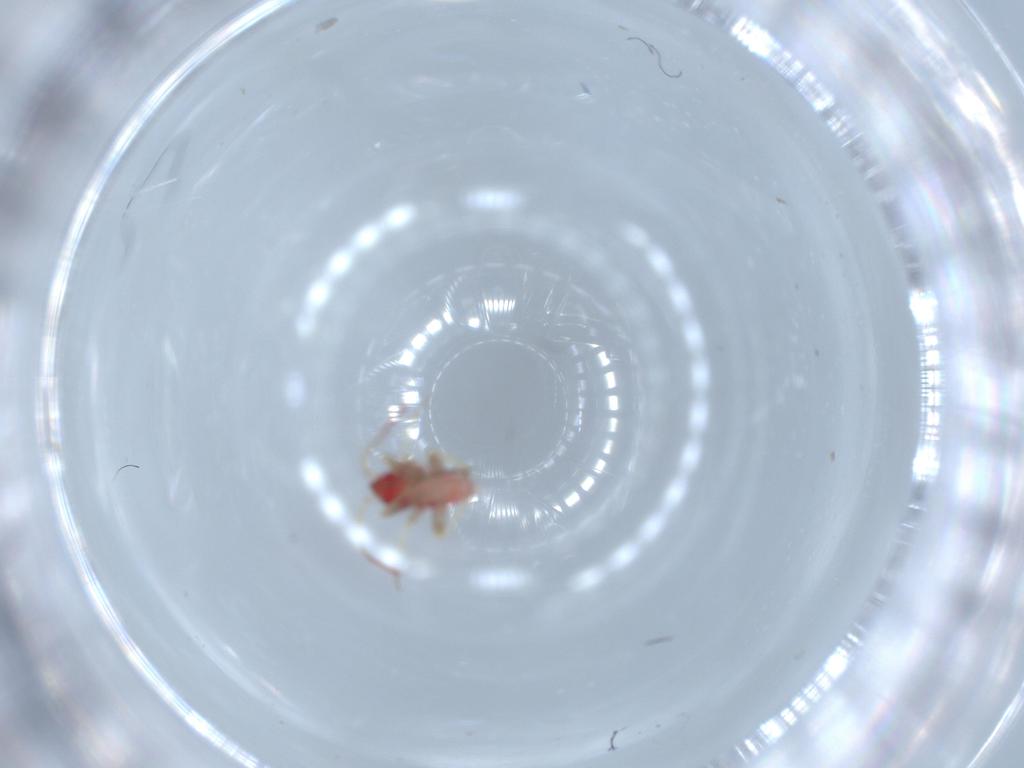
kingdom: Animalia
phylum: Arthropoda
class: Insecta
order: Hemiptera
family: Miridae
